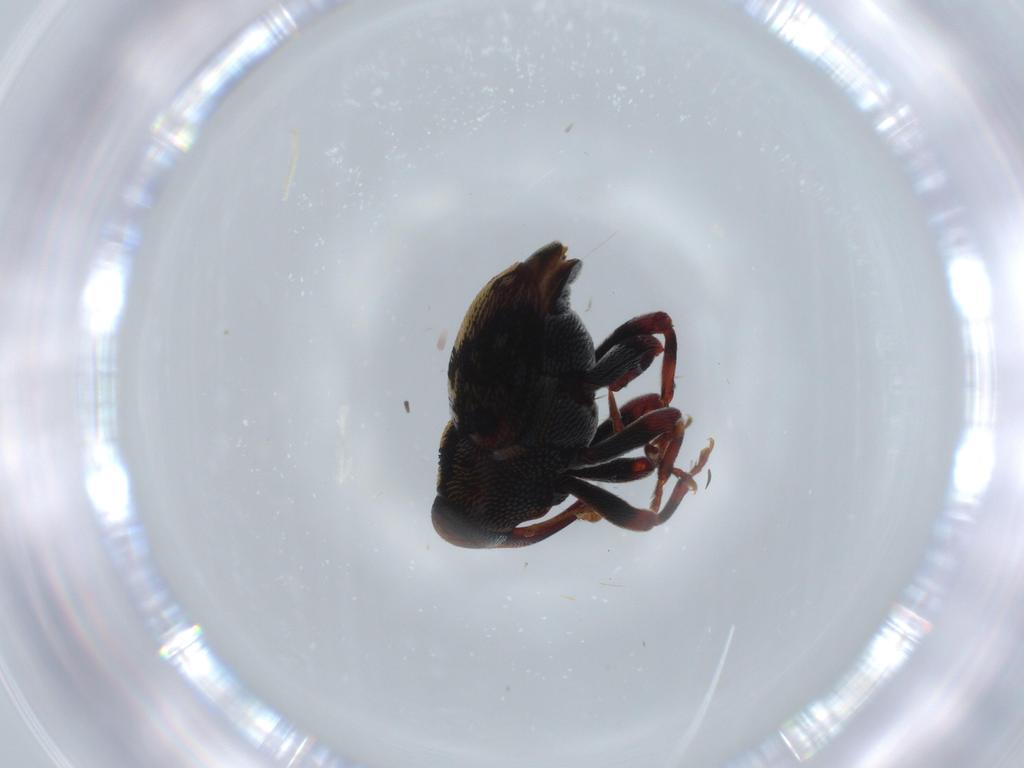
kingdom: Animalia
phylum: Arthropoda
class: Insecta
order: Coleoptera
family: Curculionidae
